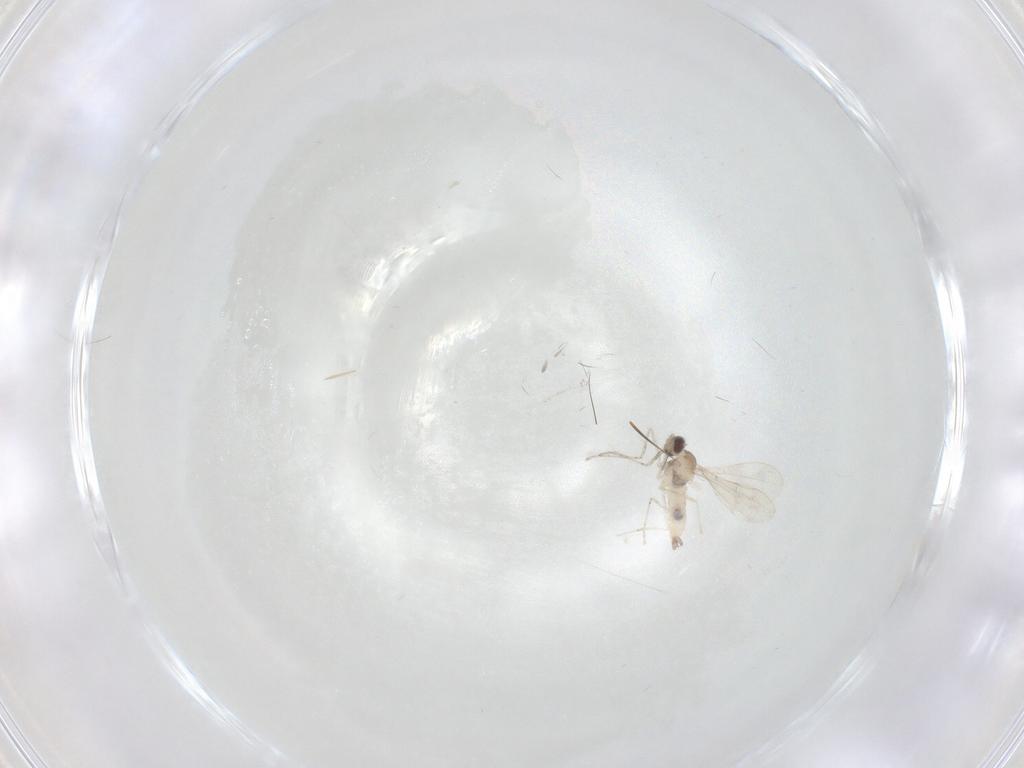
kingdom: Animalia
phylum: Arthropoda
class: Insecta
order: Diptera
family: Cecidomyiidae
